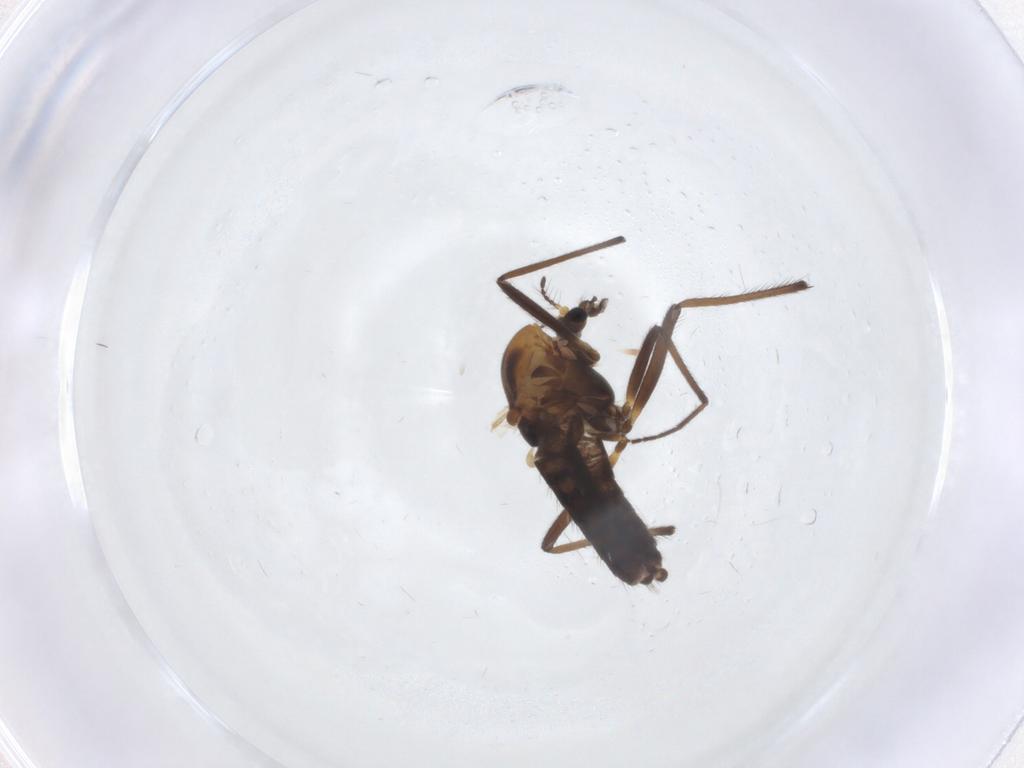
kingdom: Animalia
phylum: Arthropoda
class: Insecta
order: Diptera
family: Chironomidae
